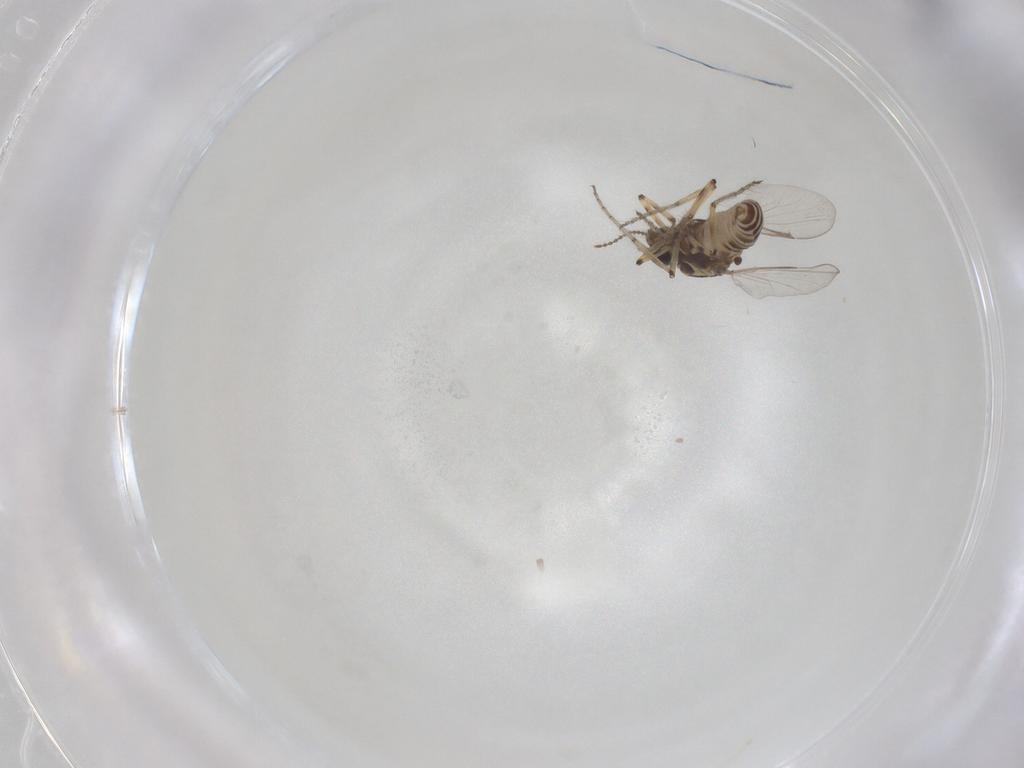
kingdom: Animalia
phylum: Arthropoda
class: Insecta
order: Diptera
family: Ceratopogonidae
